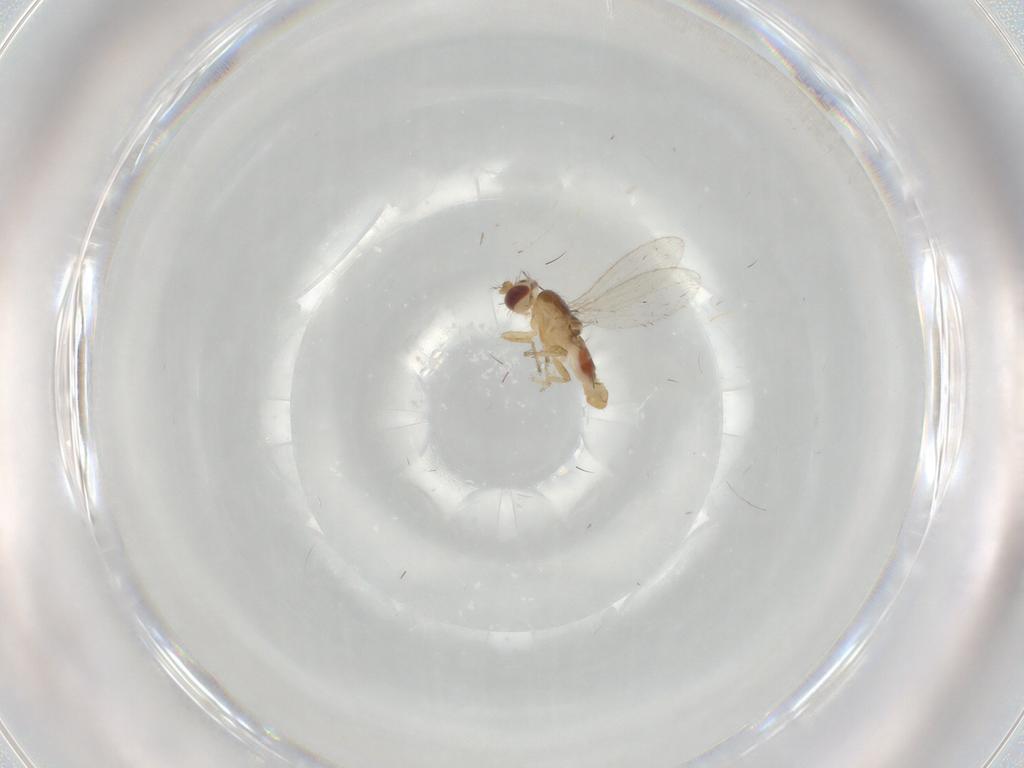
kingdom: Animalia
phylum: Arthropoda
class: Insecta
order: Diptera
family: Periscelididae
